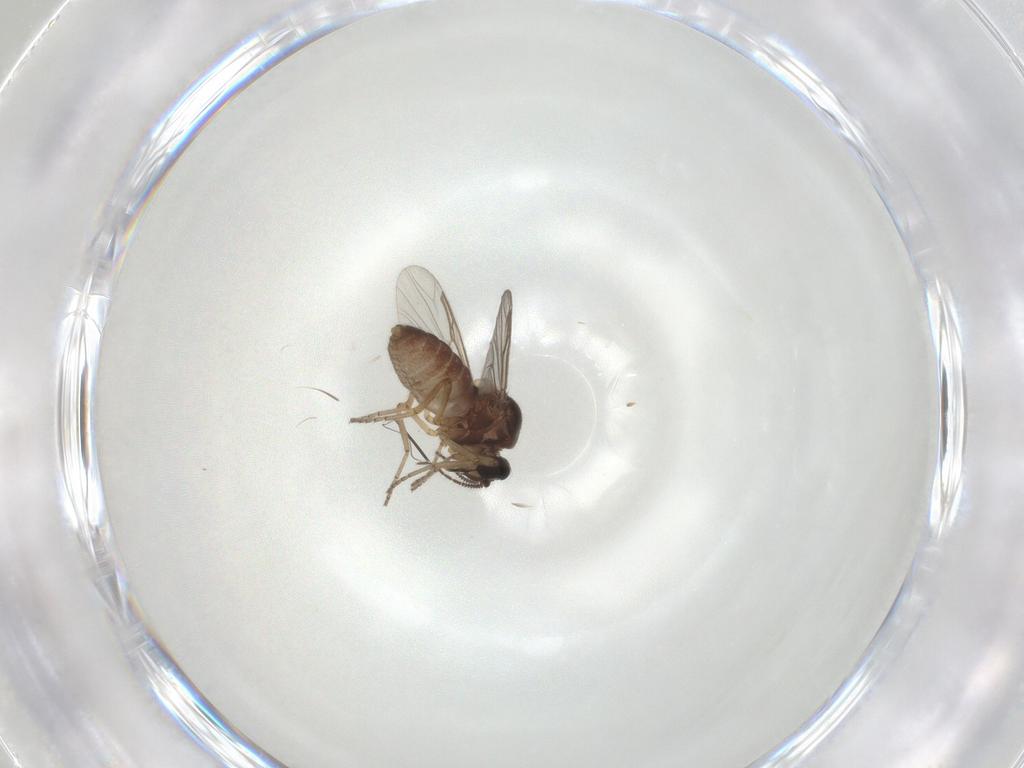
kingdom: Animalia
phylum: Arthropoda
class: Insecta
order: Diptera
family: Ceratopogonidae
